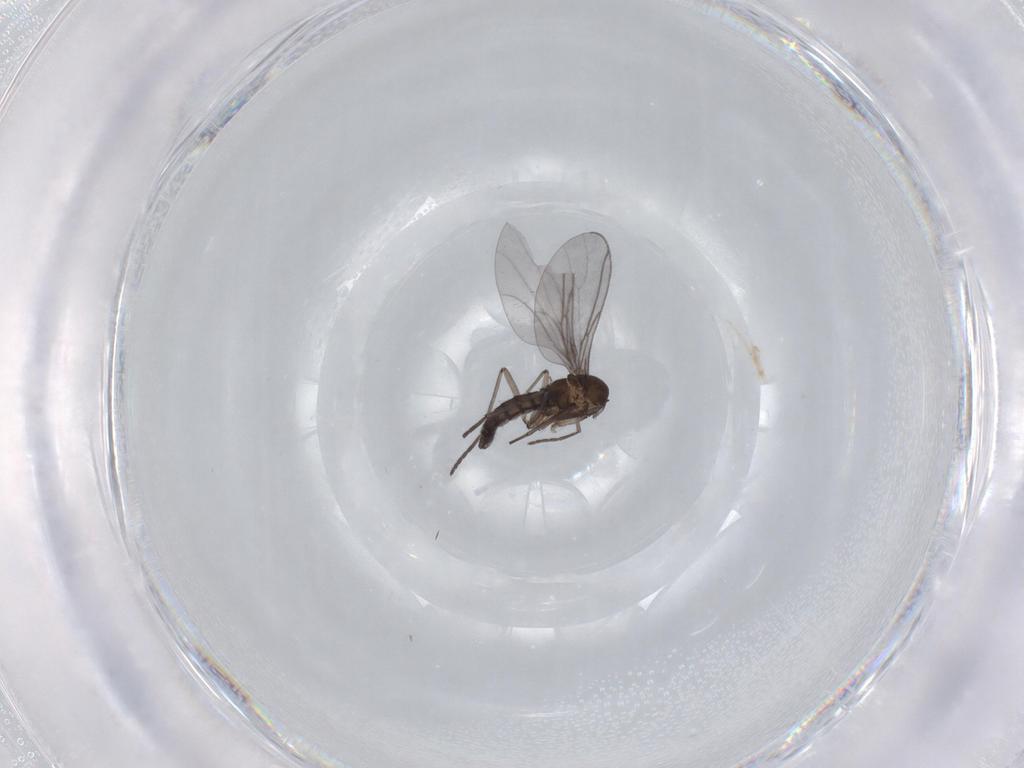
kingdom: Animalia
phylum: Arthropoda
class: Insecta
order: Diptera
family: Sciaridae
